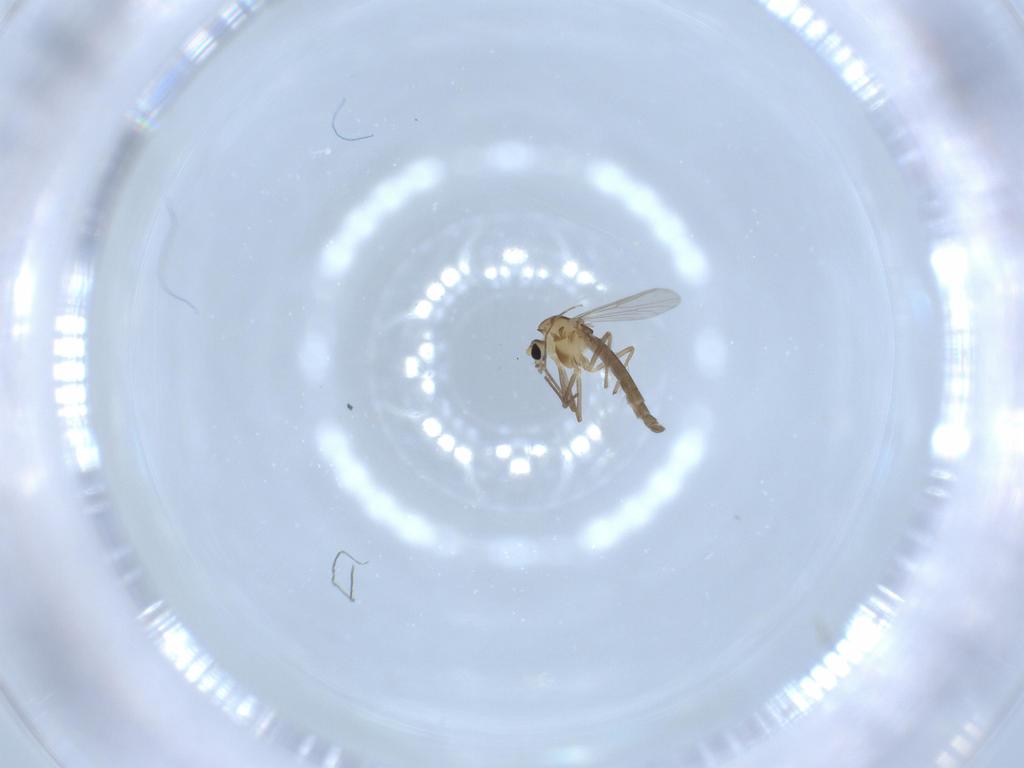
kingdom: Animalia
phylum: Arthropoda
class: Insecta
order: Diptera
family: Chironomidae
